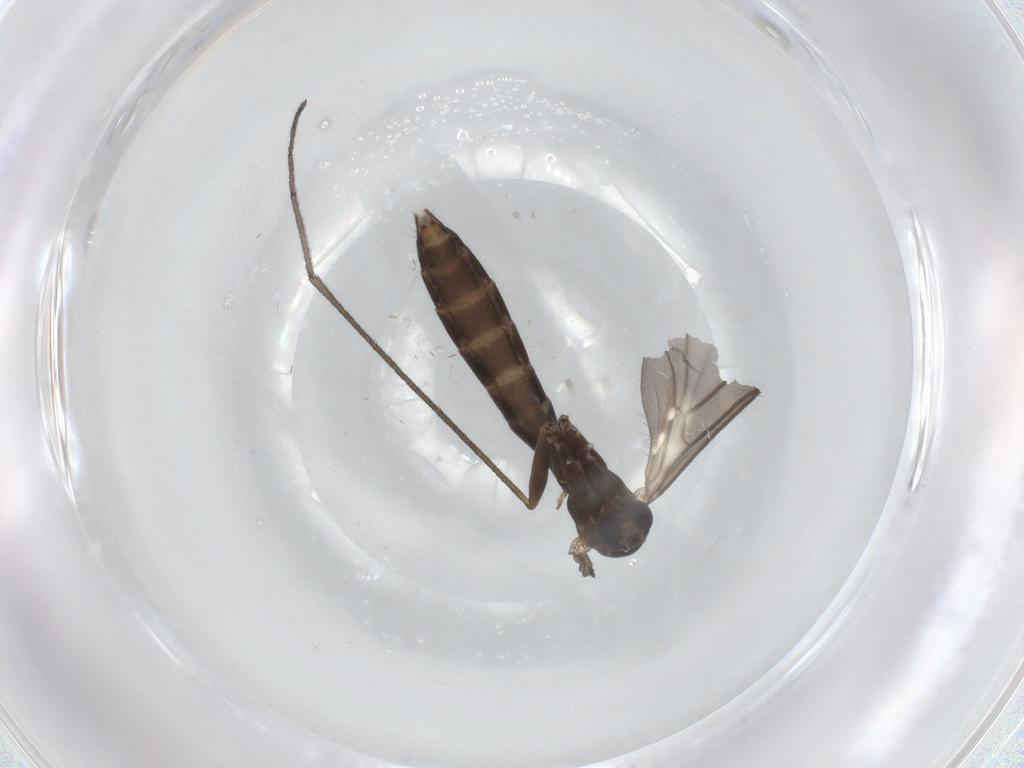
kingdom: Animalia
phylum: Arthropoda
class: Insecta
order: Diptera
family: Keroplatidae
